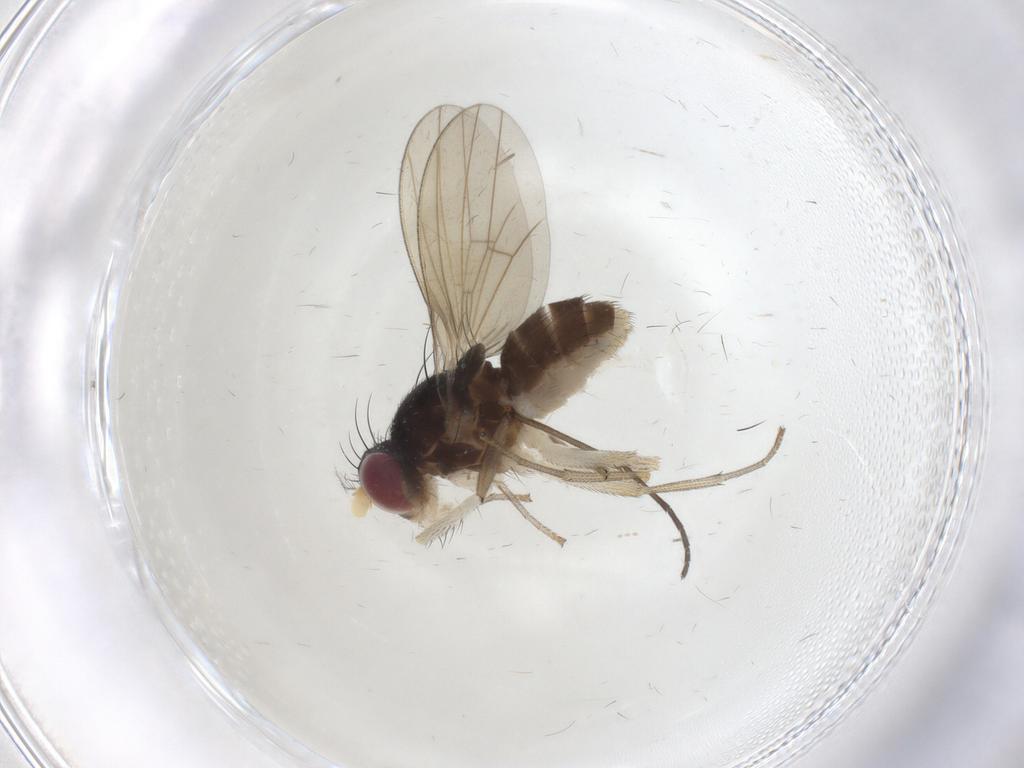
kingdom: Animalia
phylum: Arthropoda
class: Insecta
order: Diptera
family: Lauxaniidae
